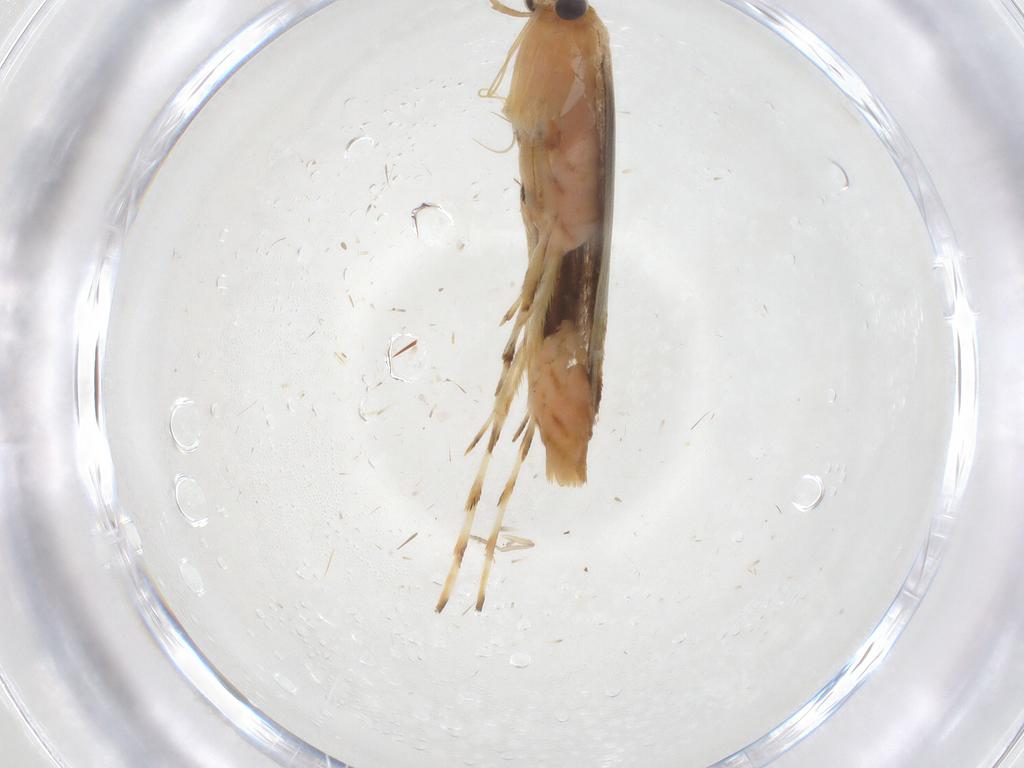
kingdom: Animalia
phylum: Arthropoda
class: Insecta
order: Lepidoptera
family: Gracillariidae
